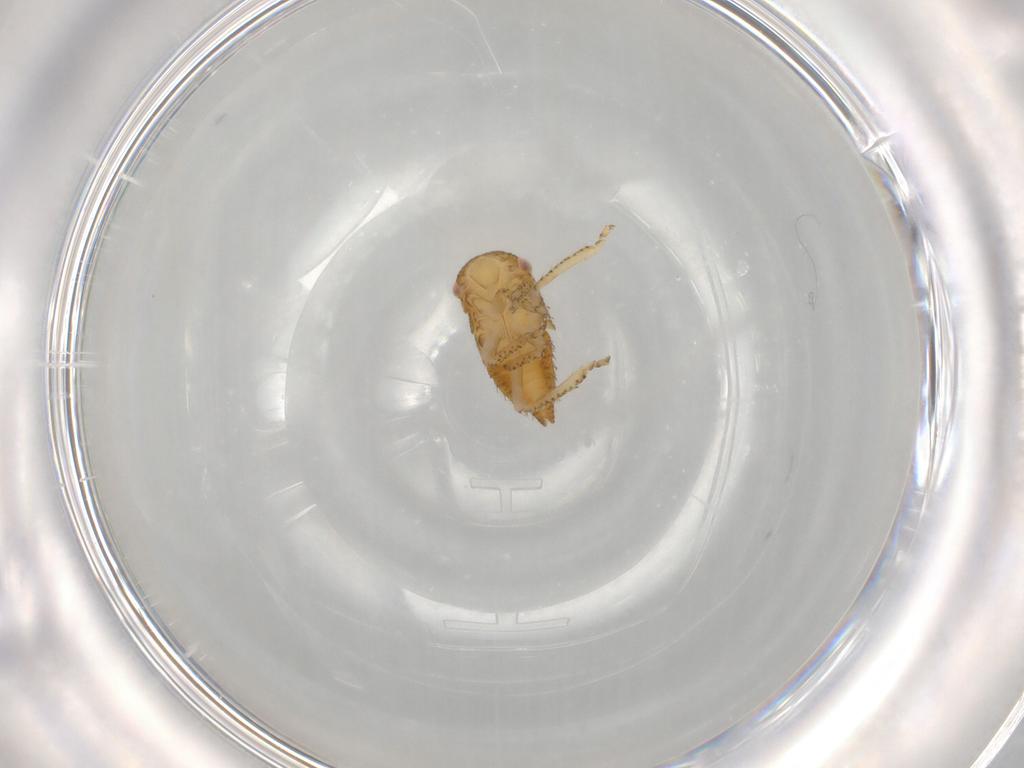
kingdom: Animalia
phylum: Arthropoda
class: Insecta
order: Hemiptera
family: Cicadellidae
